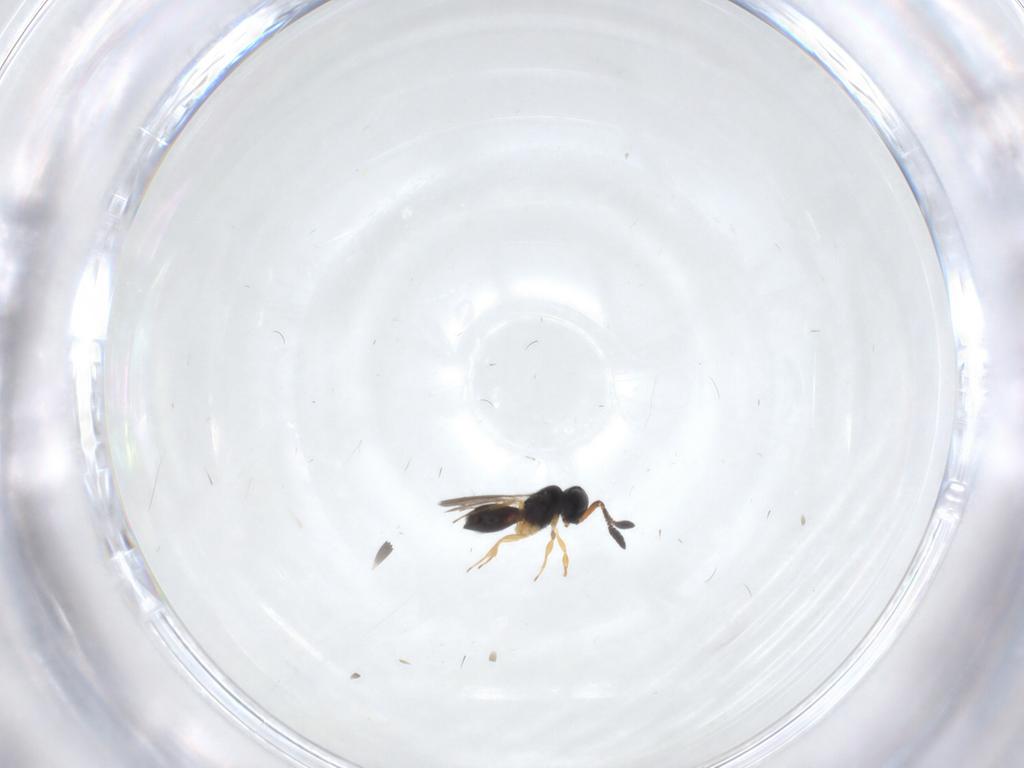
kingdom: Animalia
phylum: Arthropoda
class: Insecta
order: Hymenoptera
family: Scelionidae
